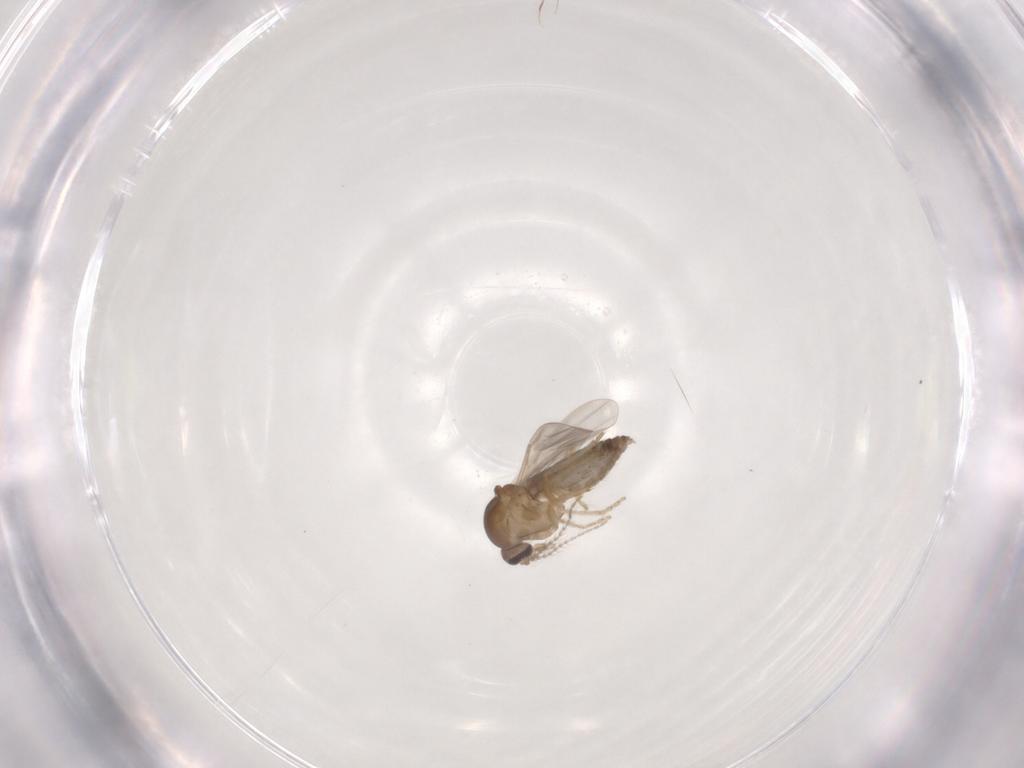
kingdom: Animalia
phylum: Arthropoda
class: Insecta
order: Diptera
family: Ceratopogonidae
